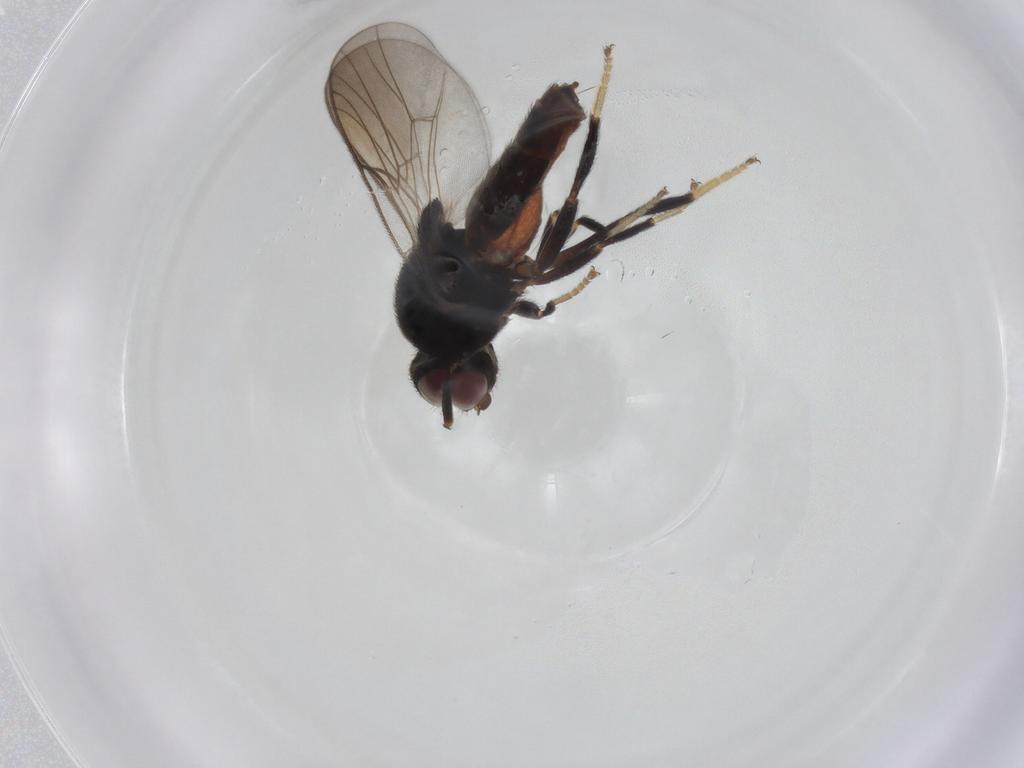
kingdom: Animalia
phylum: Arthropoda
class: Insecta
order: Diptera
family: Chloropidae
